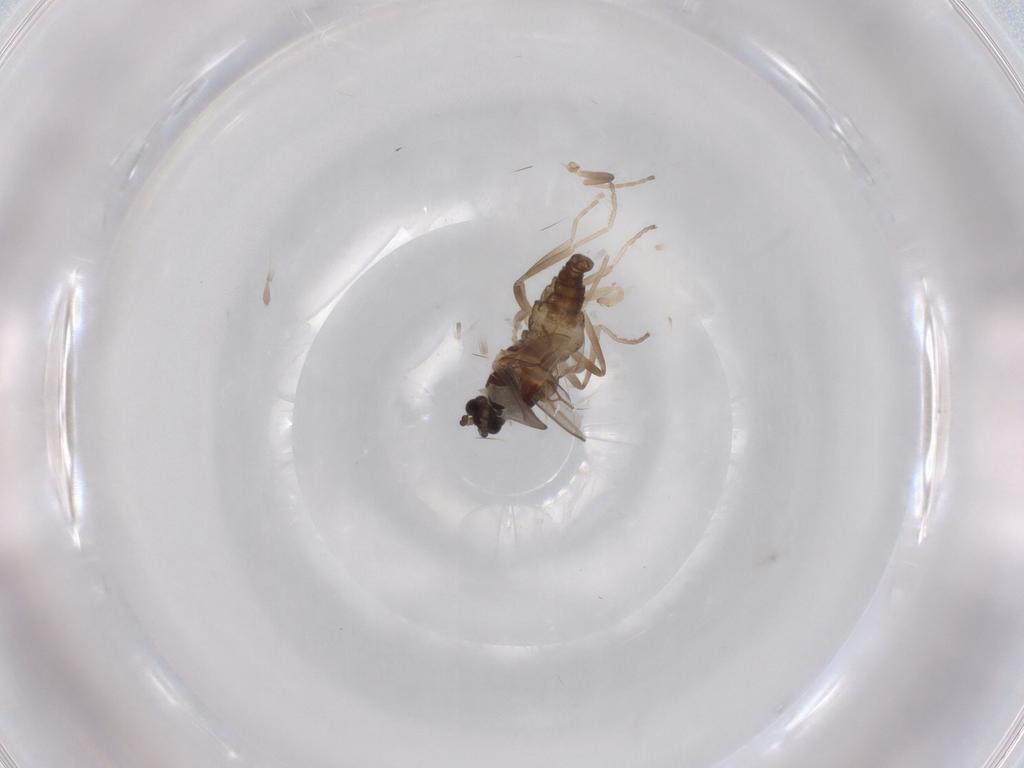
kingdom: Animalia
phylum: Arthropoda
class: Insecta
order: Diptera
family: Cecidomyiidae
